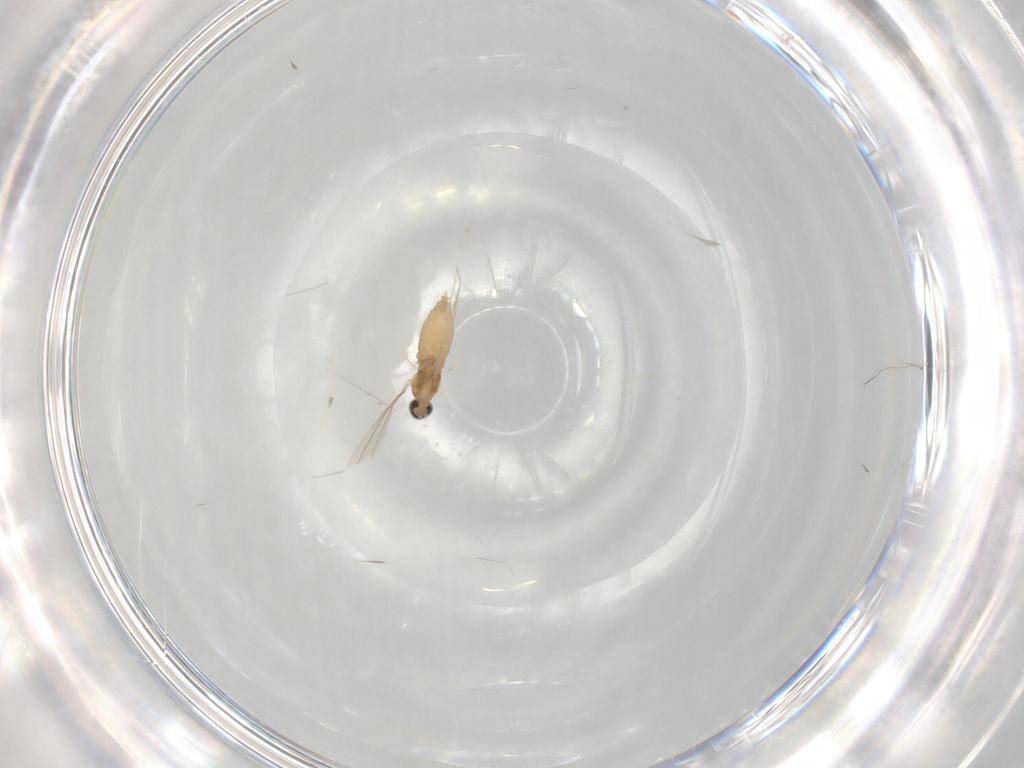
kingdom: Animalia
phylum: Arthropoda
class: Insecta
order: Diptera
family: Cecidomyiidae
